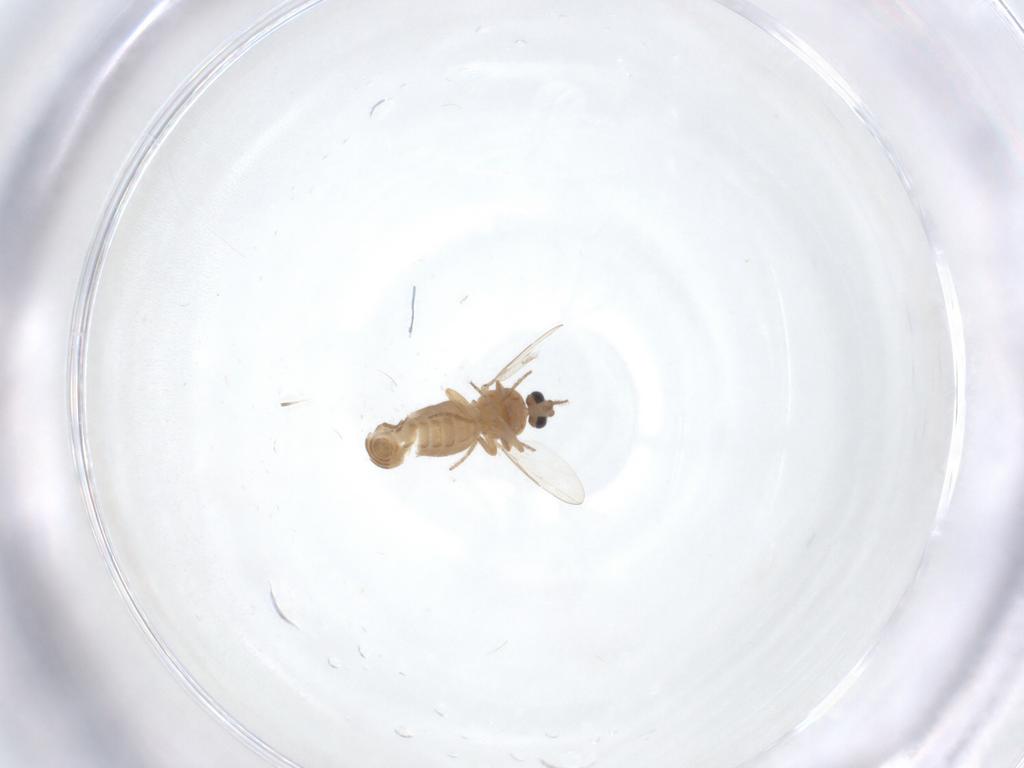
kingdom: Animalia
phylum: Arthropoda
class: Insecta
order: Diptera
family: Ceratopogonidae
